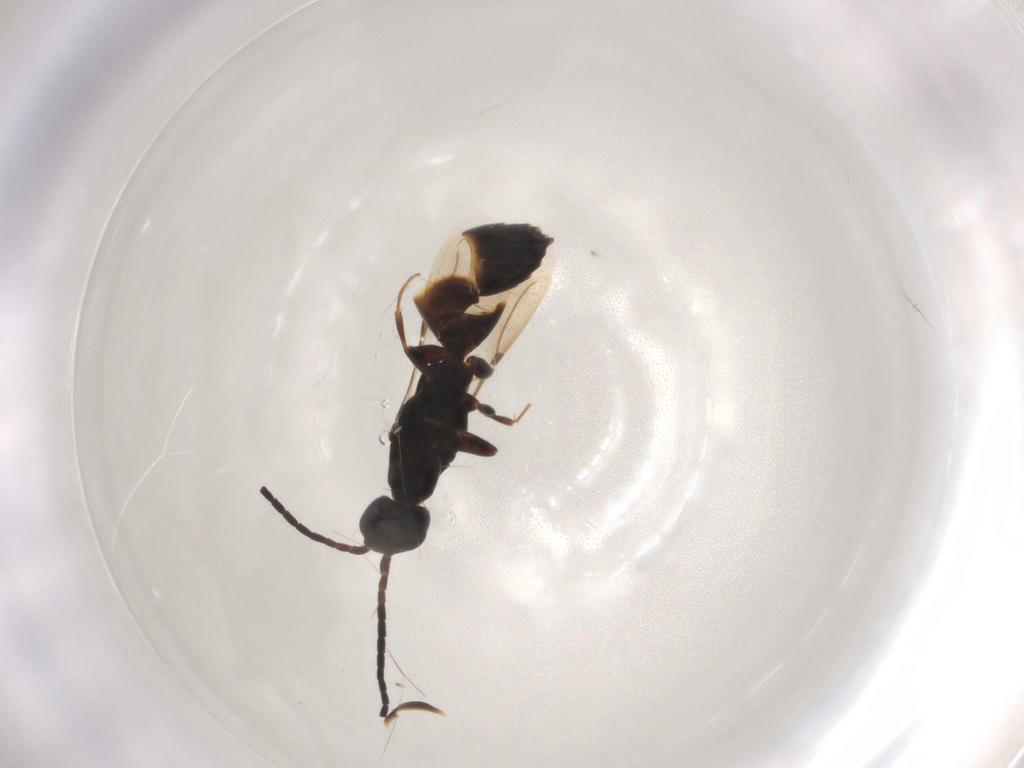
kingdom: Animalia
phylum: Arthropoda
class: Insecta
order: Hymenoptera
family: Bethylidae
